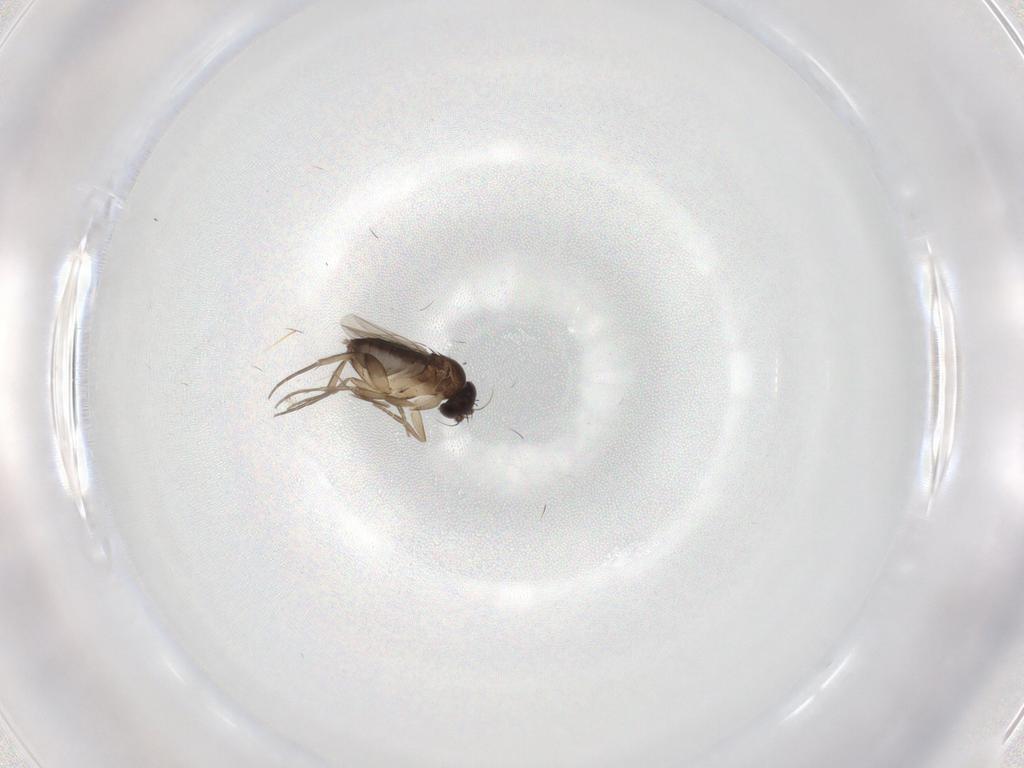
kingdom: Animalia
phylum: Arthropoda
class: Insecta
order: Diptera
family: Ceratopogonidae
